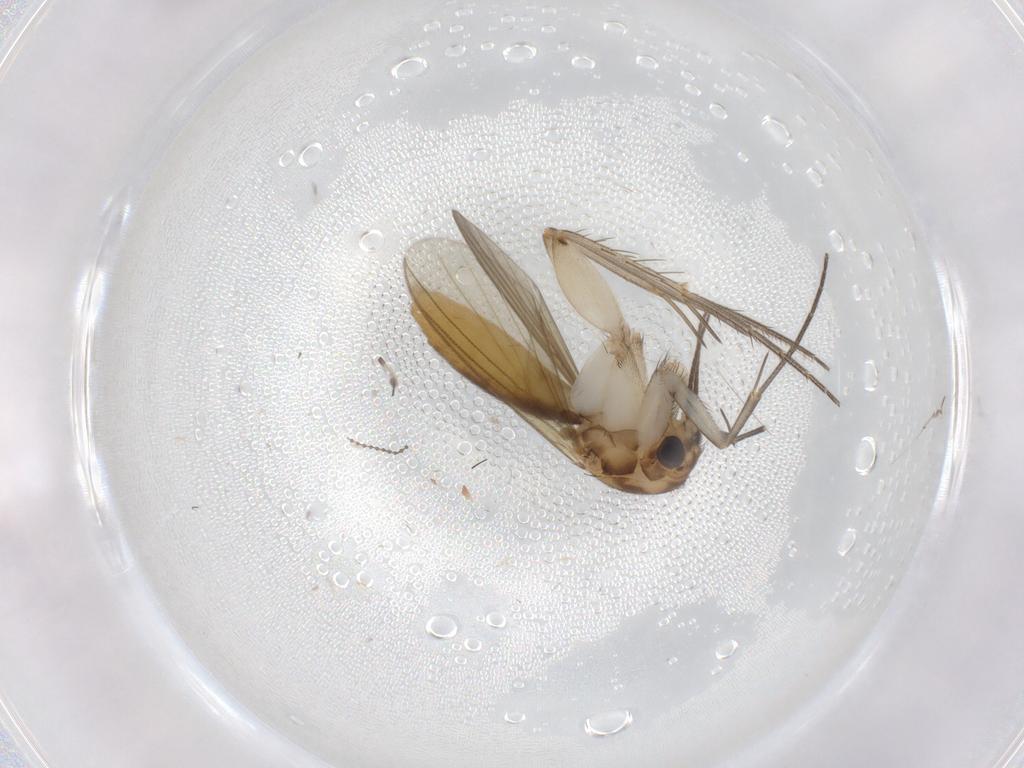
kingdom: Animalia
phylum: Arthropoda
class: Insecta
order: Diptera
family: Mycetophilidae
